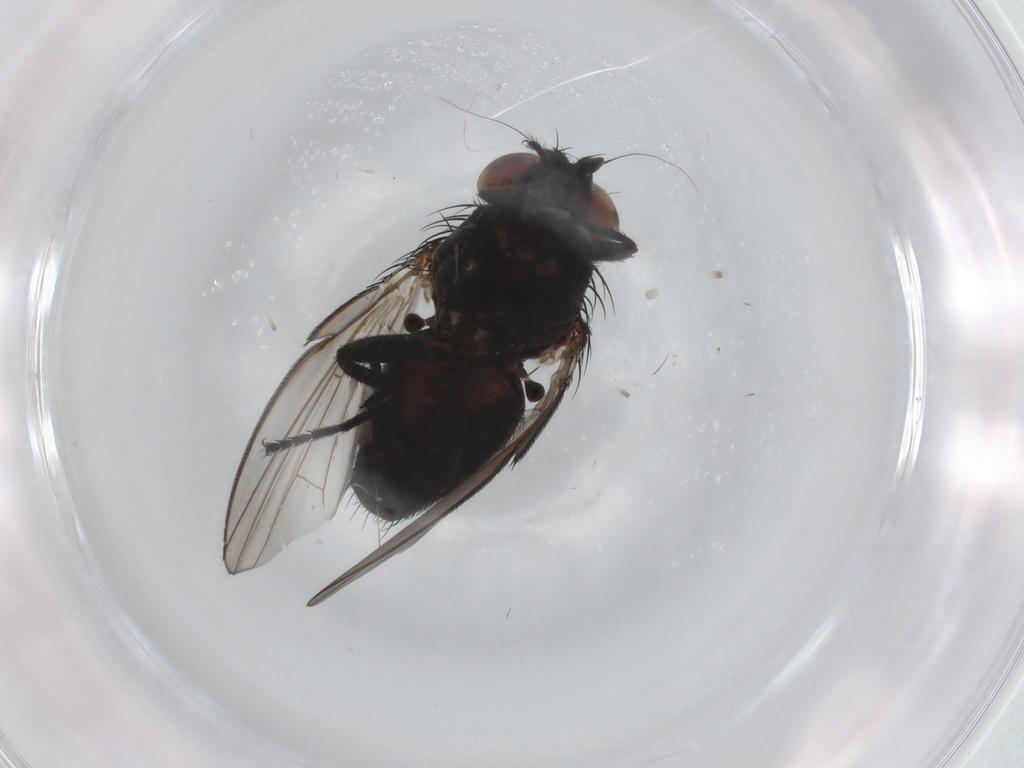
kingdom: Animalia
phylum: Arthropoda
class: Insecta
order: Diptera
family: Milichiidae
